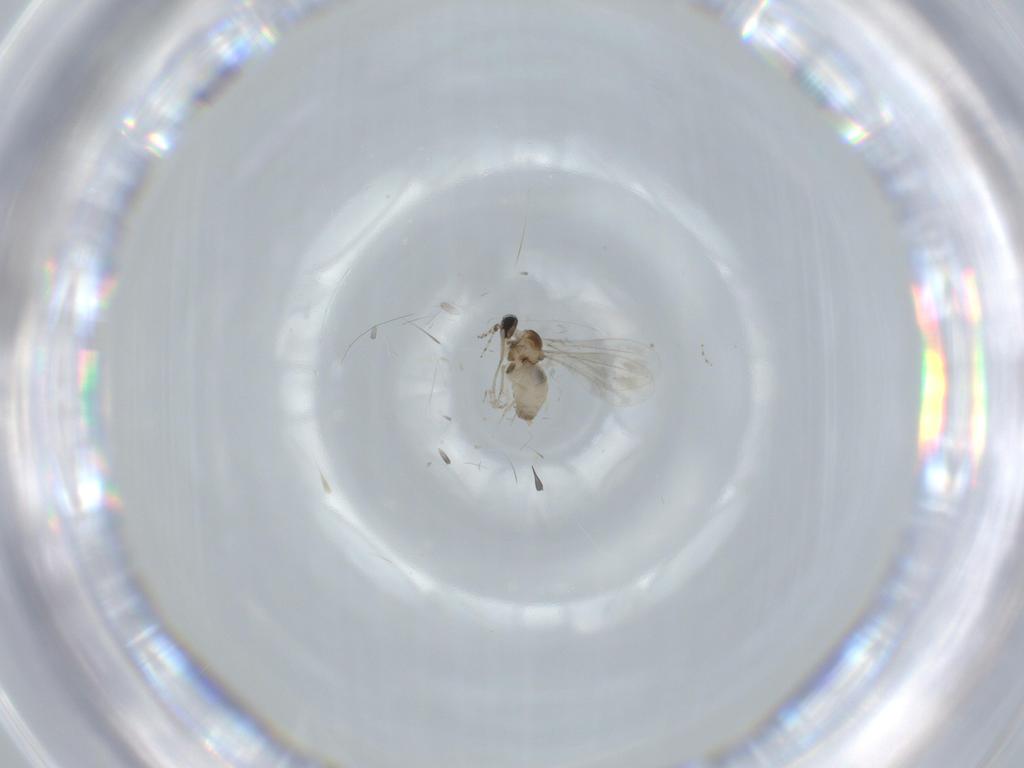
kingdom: Animalia
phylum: Arthropoda
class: Insecta
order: Diptera
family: Cecidomyiidae
